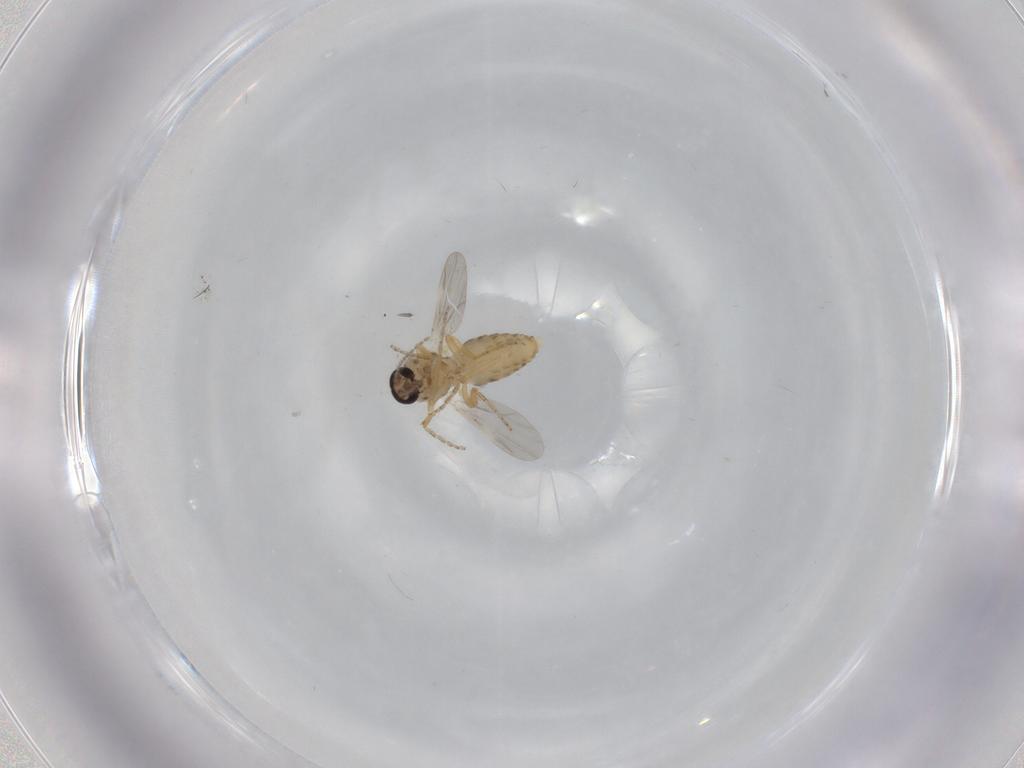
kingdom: Animalia
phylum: Arthropoda
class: Insecta
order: Diptera
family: Ceratopogonidae
